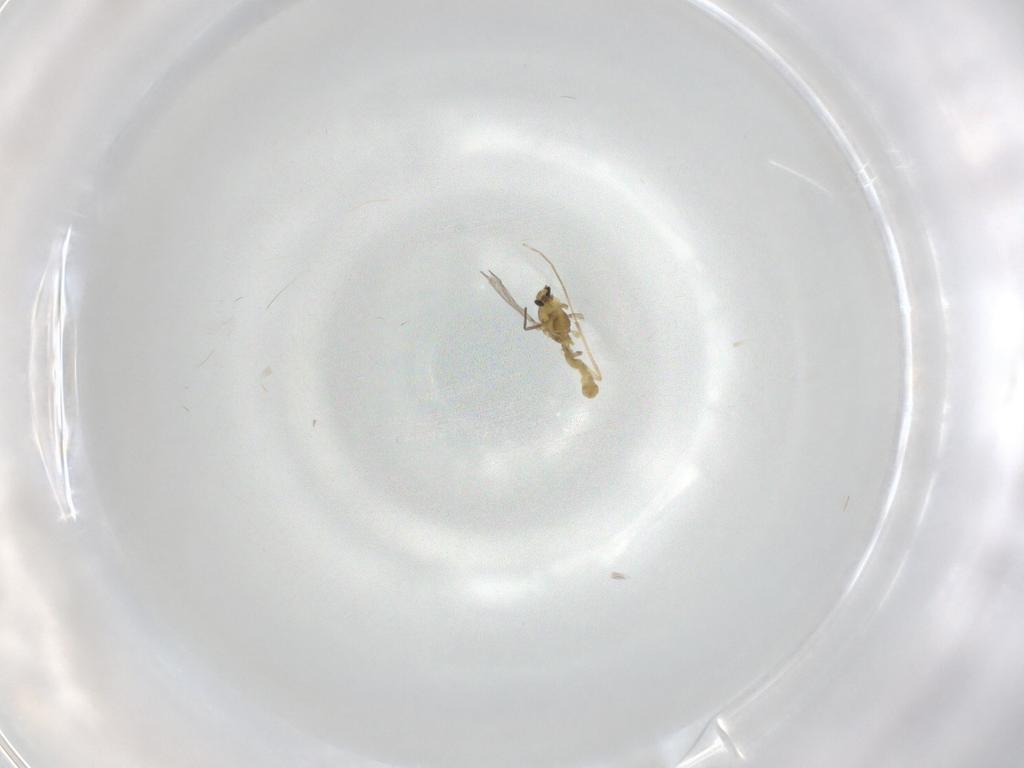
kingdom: Animalia
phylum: Arthropoda
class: Insecta
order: Diptera
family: Chironomidae
